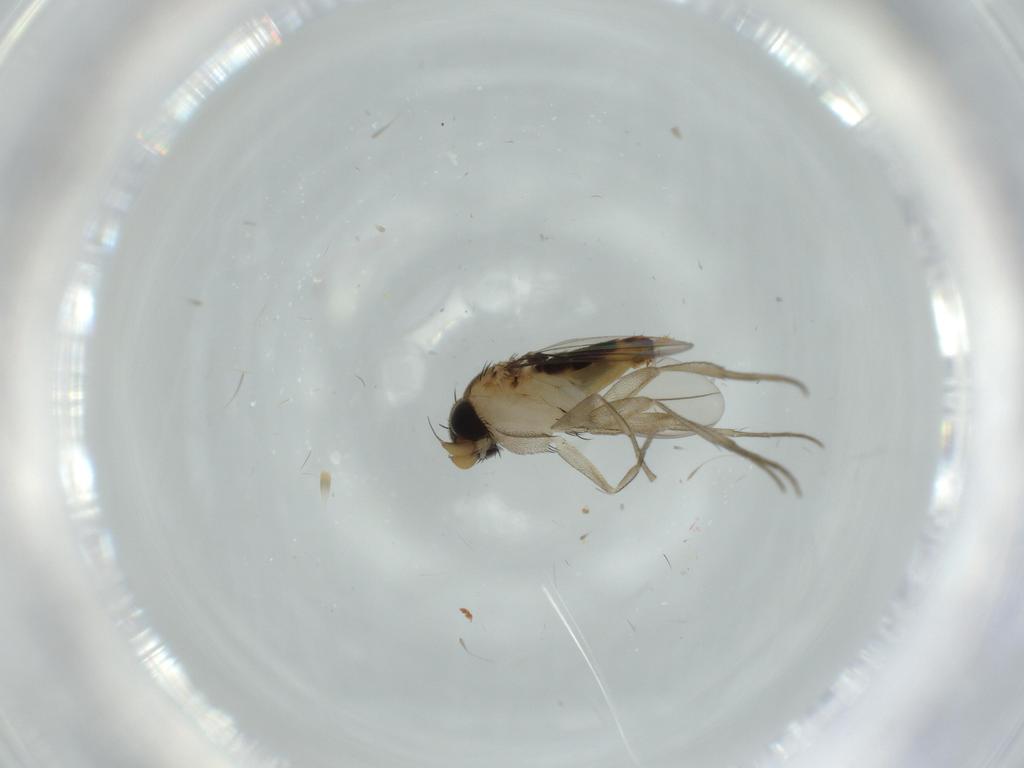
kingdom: Animalia
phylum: Arthropoda
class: Insecta
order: Diptera
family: Phoridae
